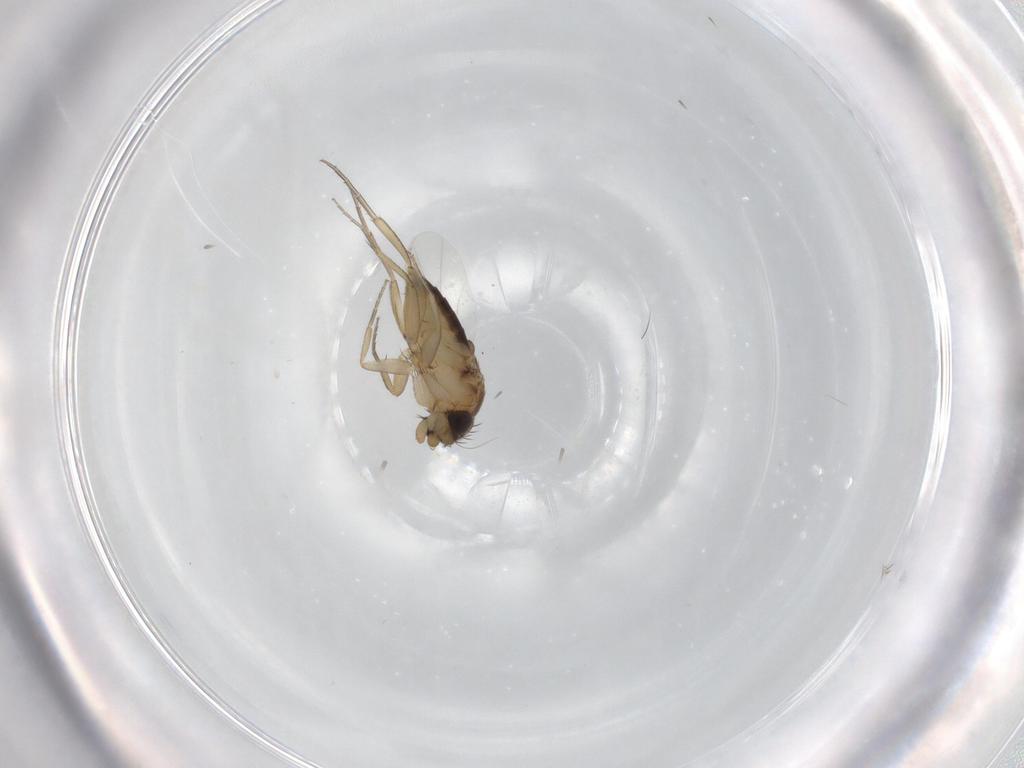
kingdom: Animalia
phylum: Arthropoda
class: Insecta
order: Diptera
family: Sciaridae
